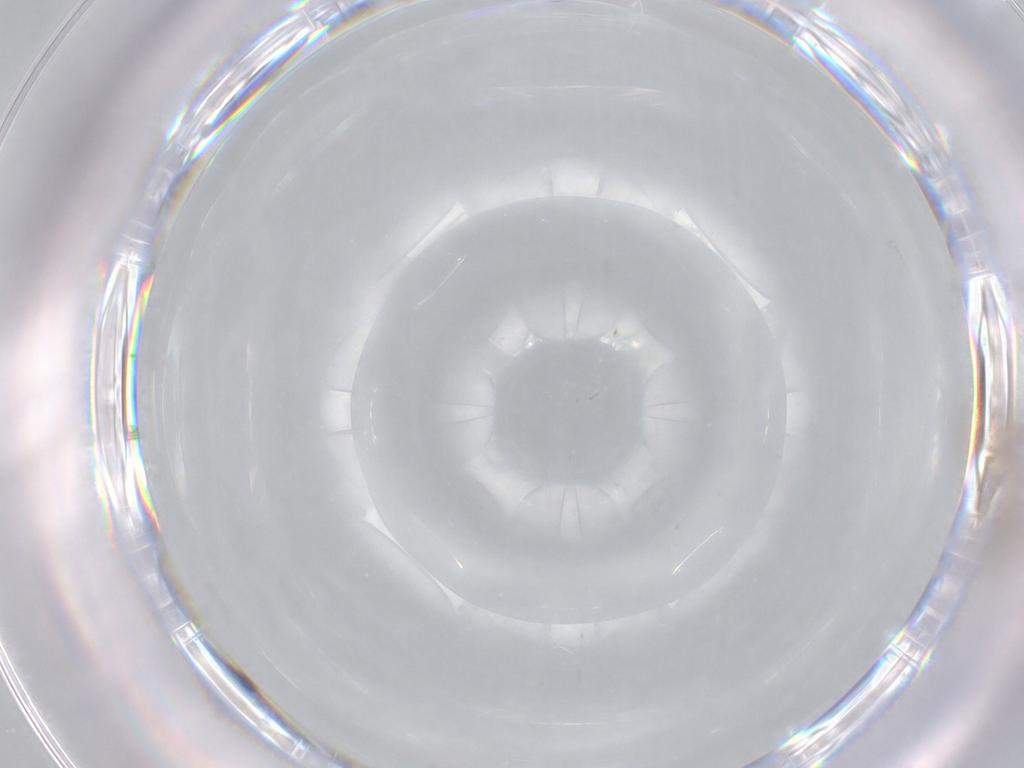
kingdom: Animalia
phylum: Arthropoda
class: Insecta
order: Diptera
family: Cecidomyiidae
